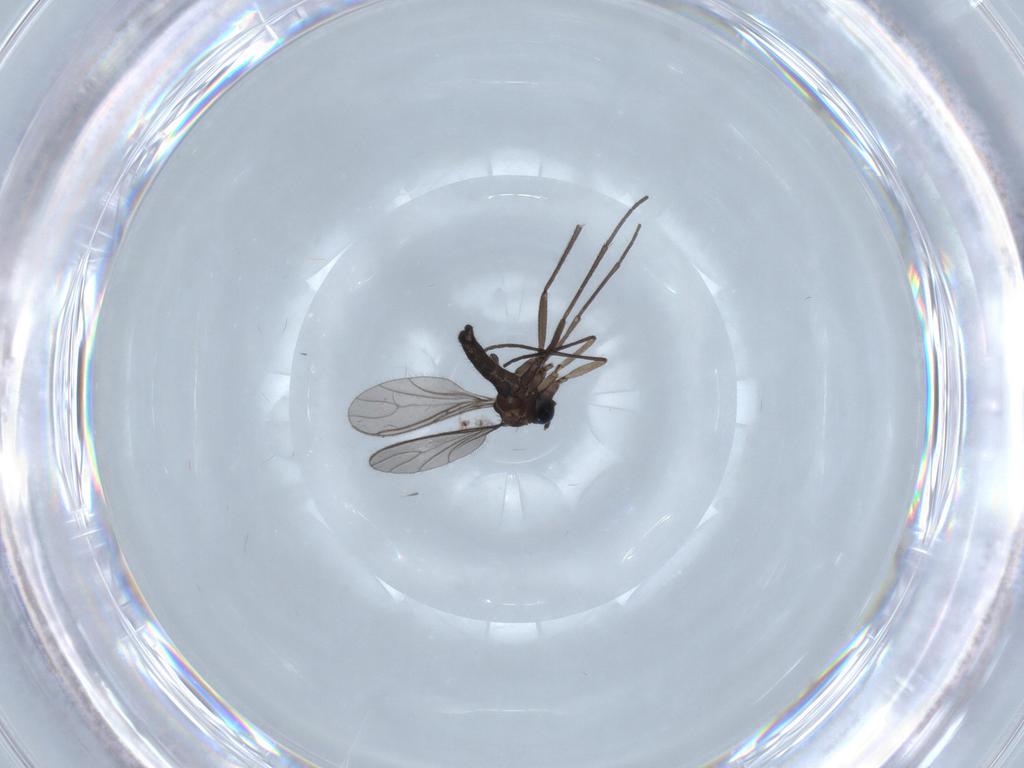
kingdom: Animalia
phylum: Arthropoda
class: Insecta
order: Diptera
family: Sciaridae
